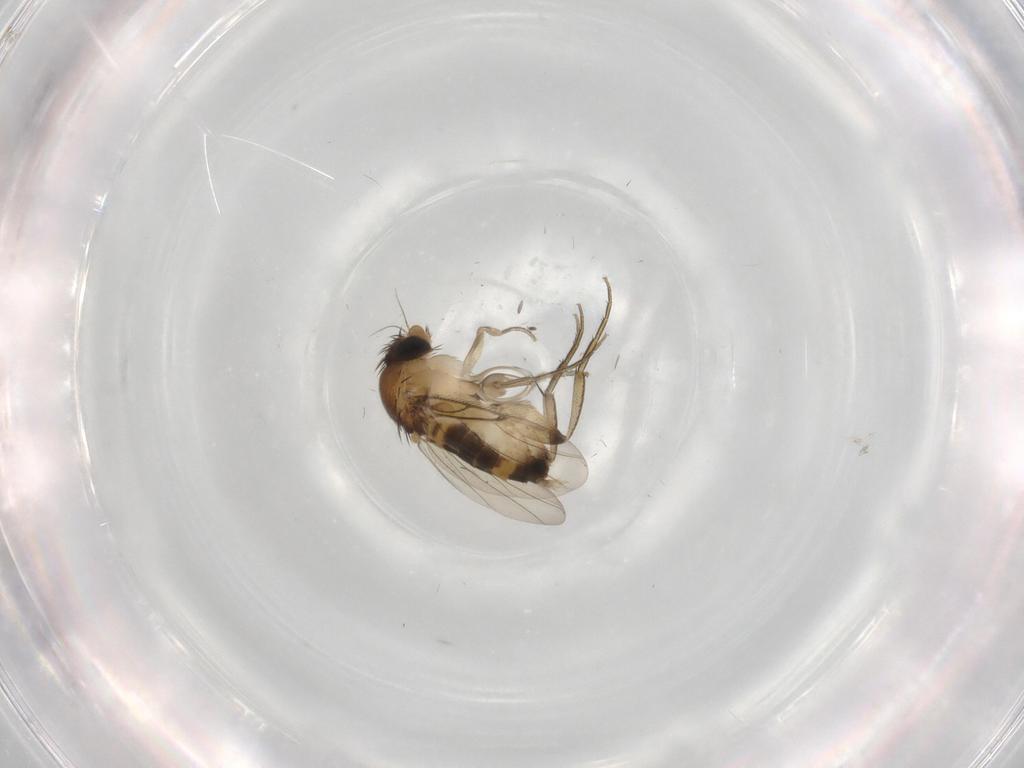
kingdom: Animalia
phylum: Arthropoda
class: Insecta
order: Diptera
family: Phoridae
